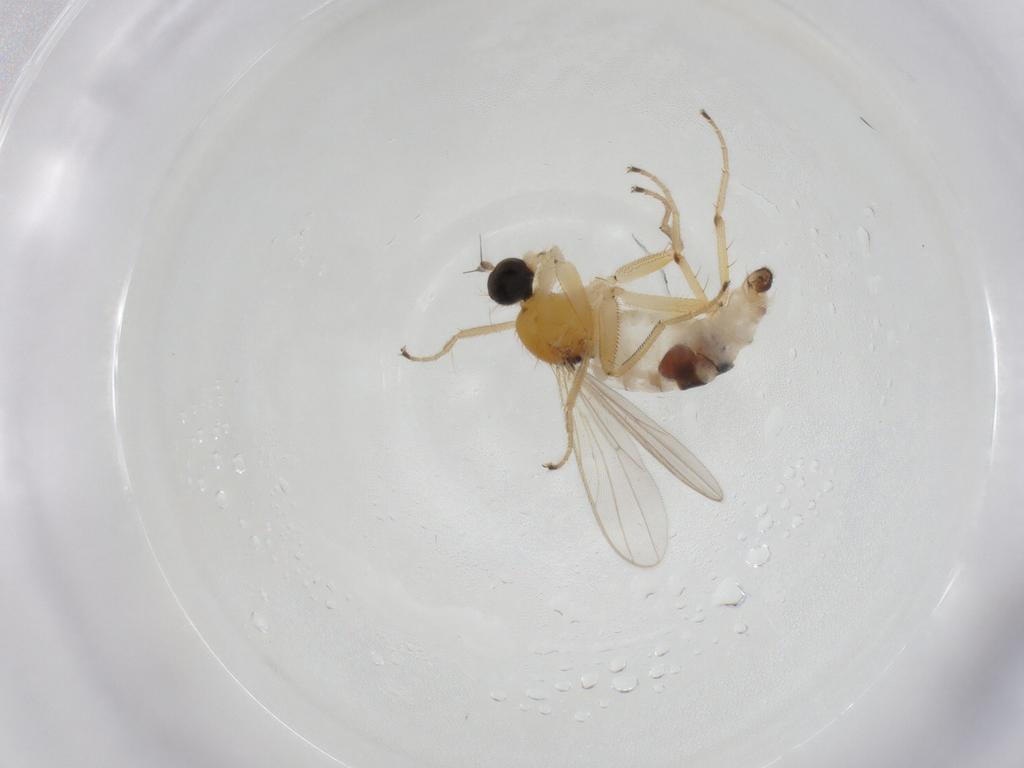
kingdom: Animalia
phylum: Arthropoda
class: Insecta
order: Diptera
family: Hybotidae
